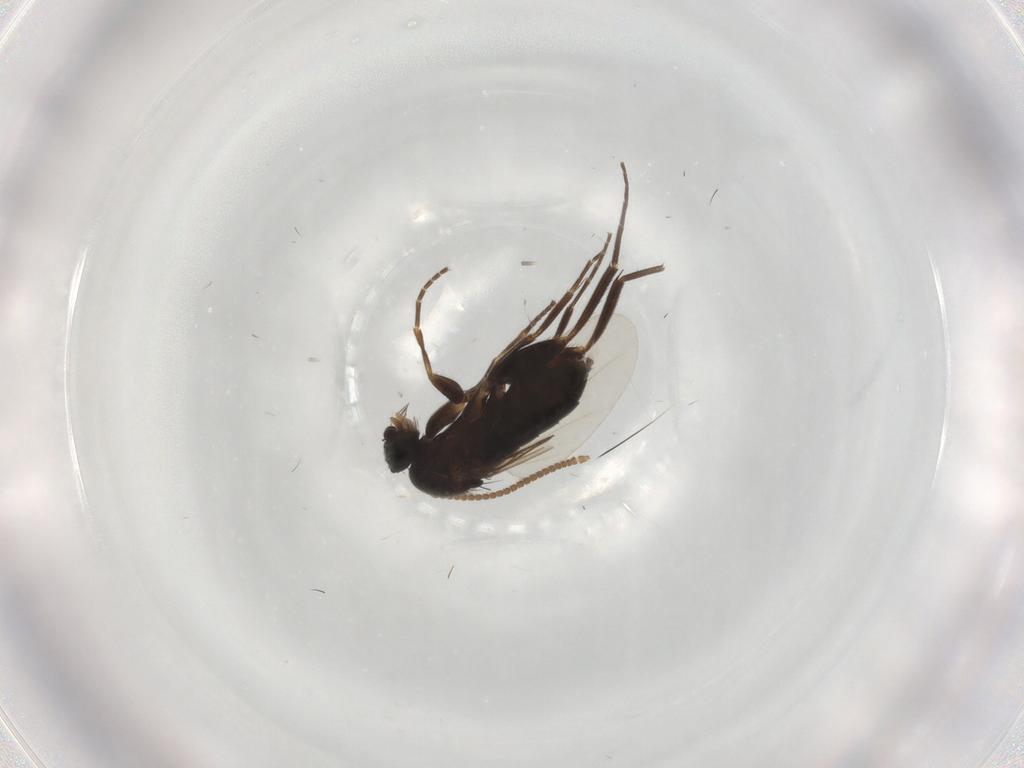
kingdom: Animalia
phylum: Arthropoda
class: Insecta
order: Diptera
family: Phoridae
